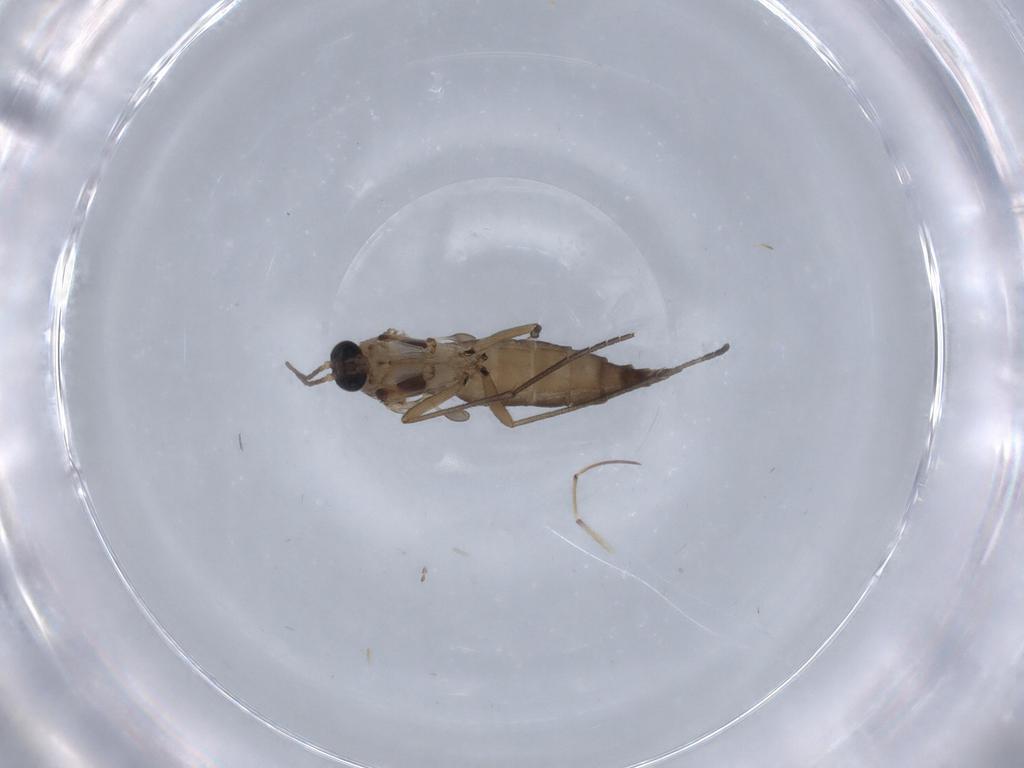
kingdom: Animalia
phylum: Arthropoda
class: Insecta
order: Diptera
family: Sciaridae
